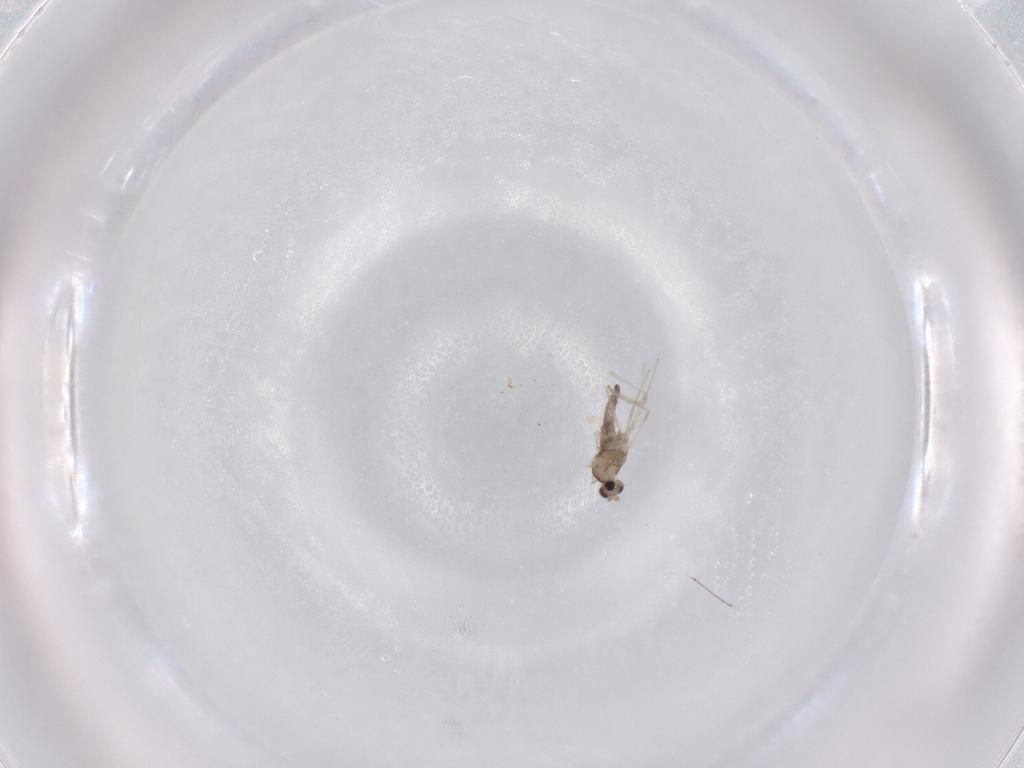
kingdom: Animalia
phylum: Arthropoda
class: Insecta
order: Diptera
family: Cecidomyiidae
